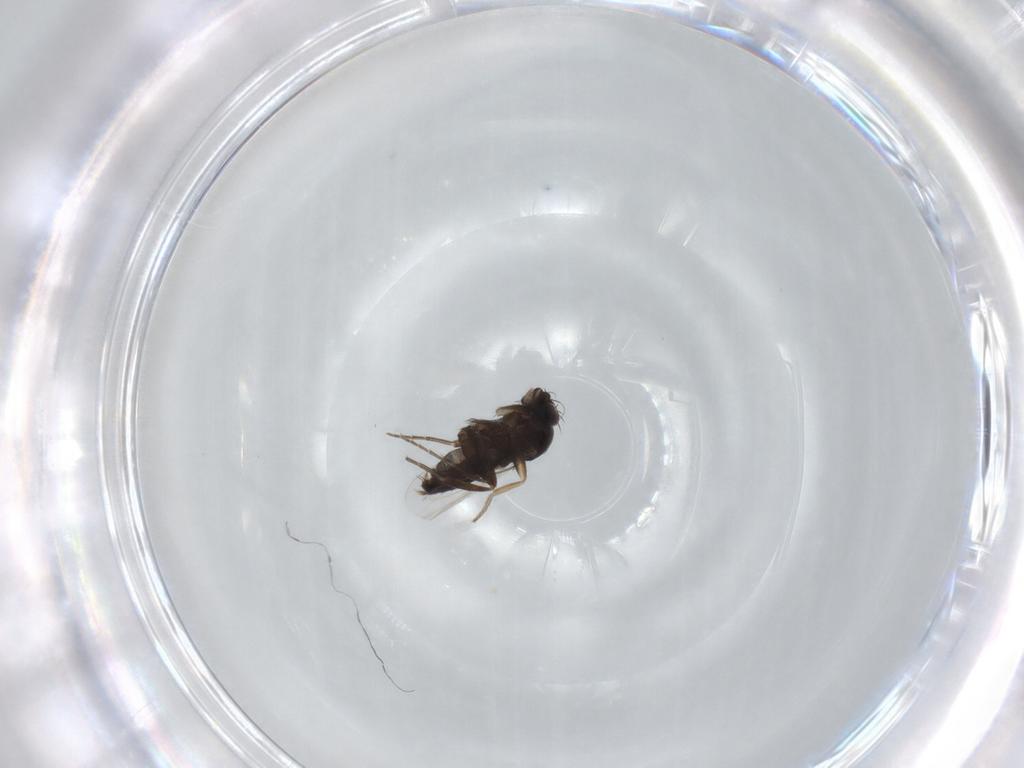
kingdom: Animalia
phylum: Arthropoda
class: Insecta
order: Diptera
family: Phoridae
